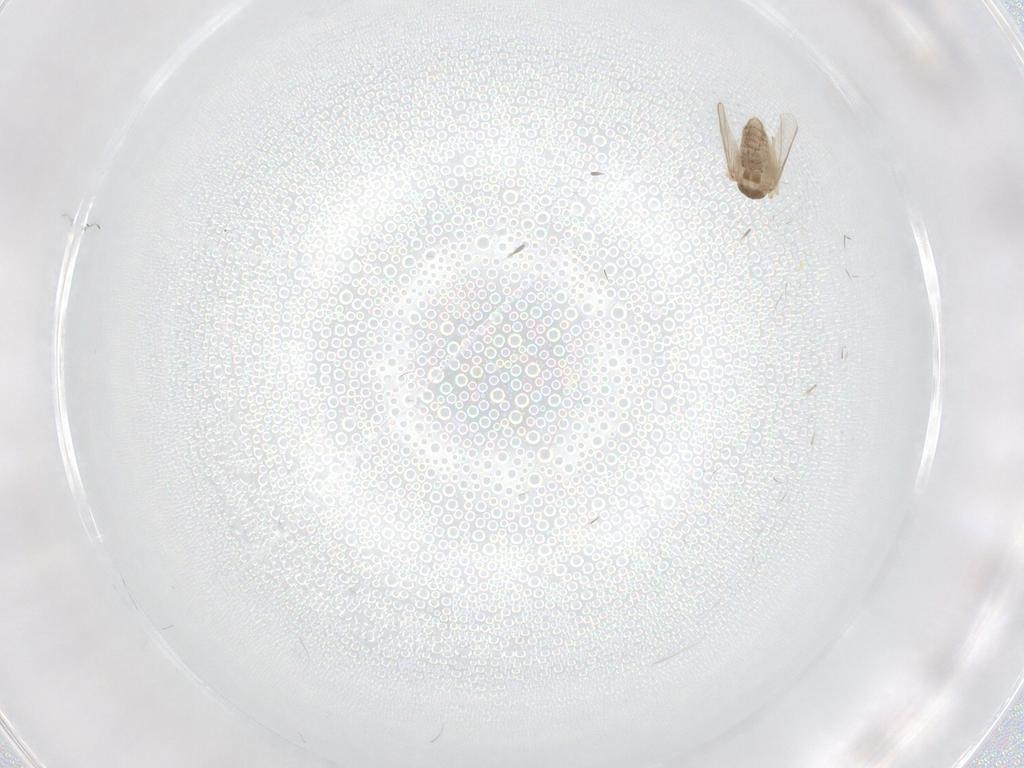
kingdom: Animalia
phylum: Arthropoda
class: Insecta
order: Diptera
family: Chironomidae
